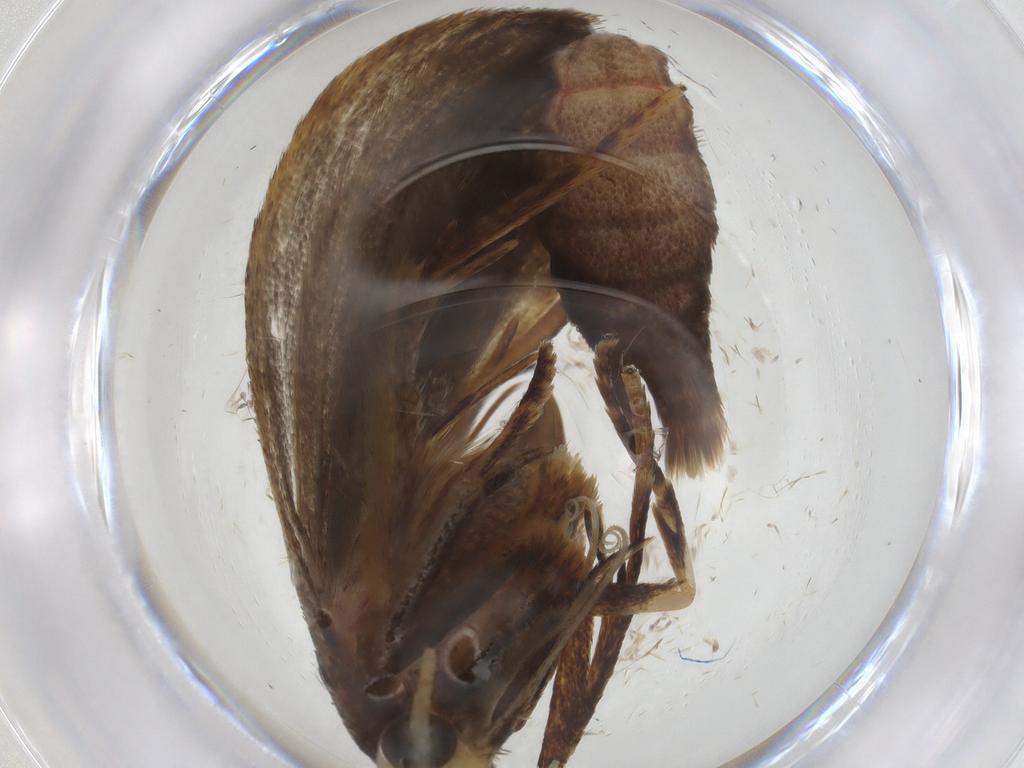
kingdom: Animalia
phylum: Arthropoda
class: Insecta
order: Lepidoptera
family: Autostichidae
